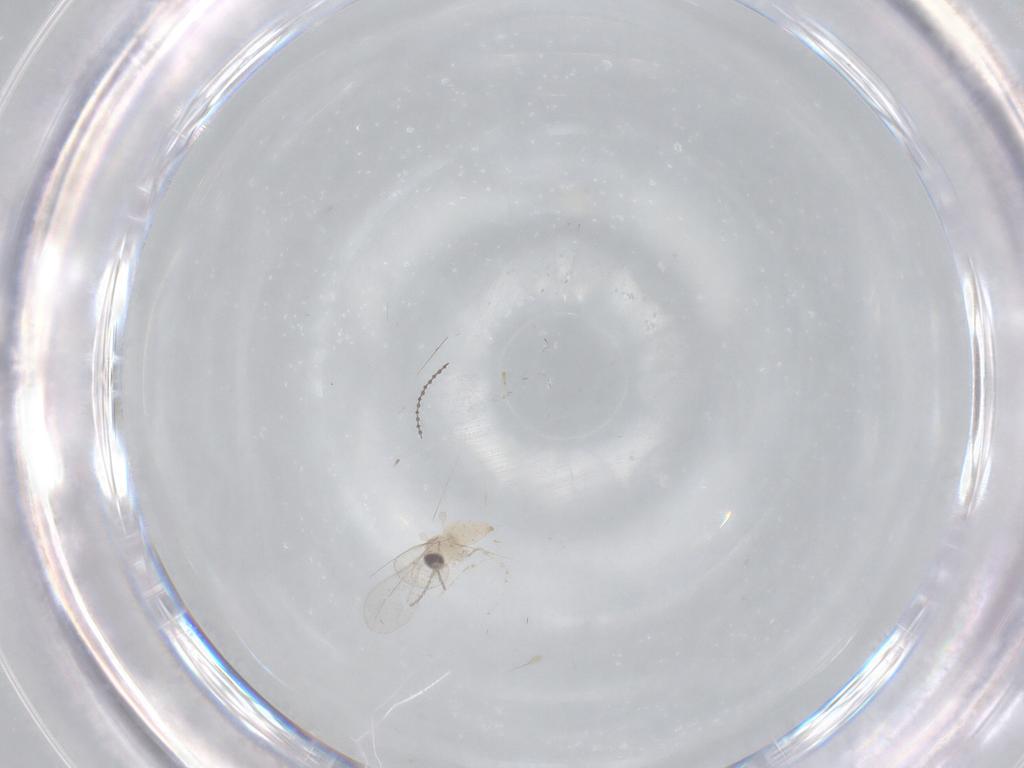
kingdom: Animalia
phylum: Arthropoda
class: Insecta
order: Diptera
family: Cecidomyiidae
